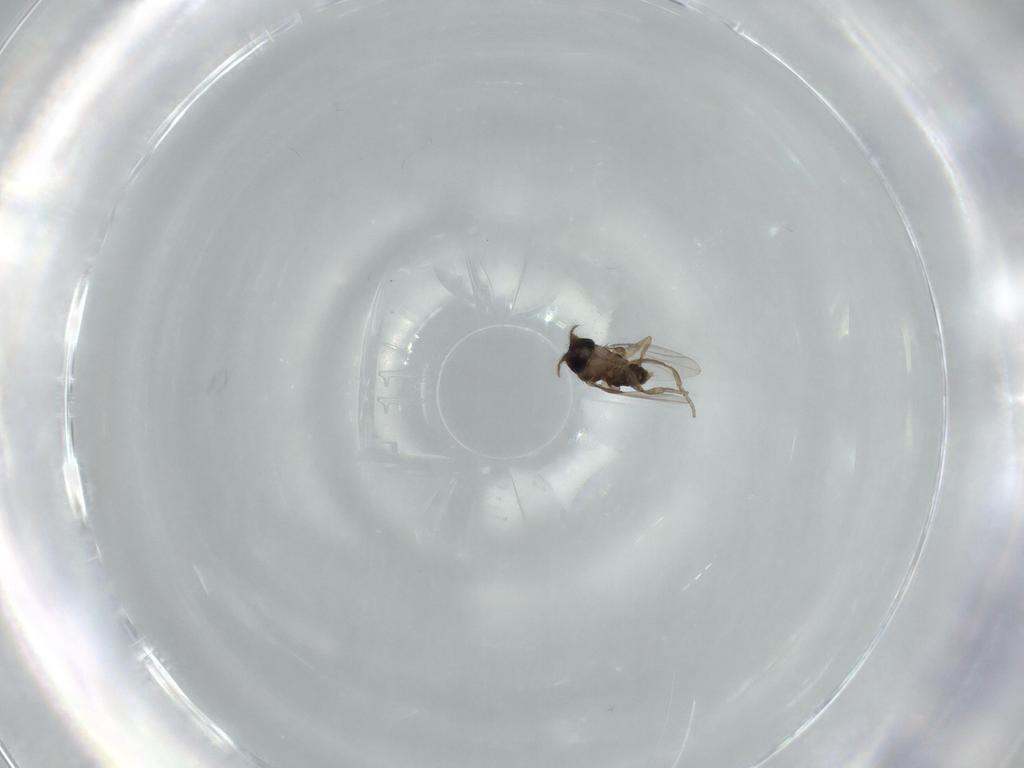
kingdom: Animalia
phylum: Arthropoda
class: Insecta
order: Diptera
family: Phoridae
